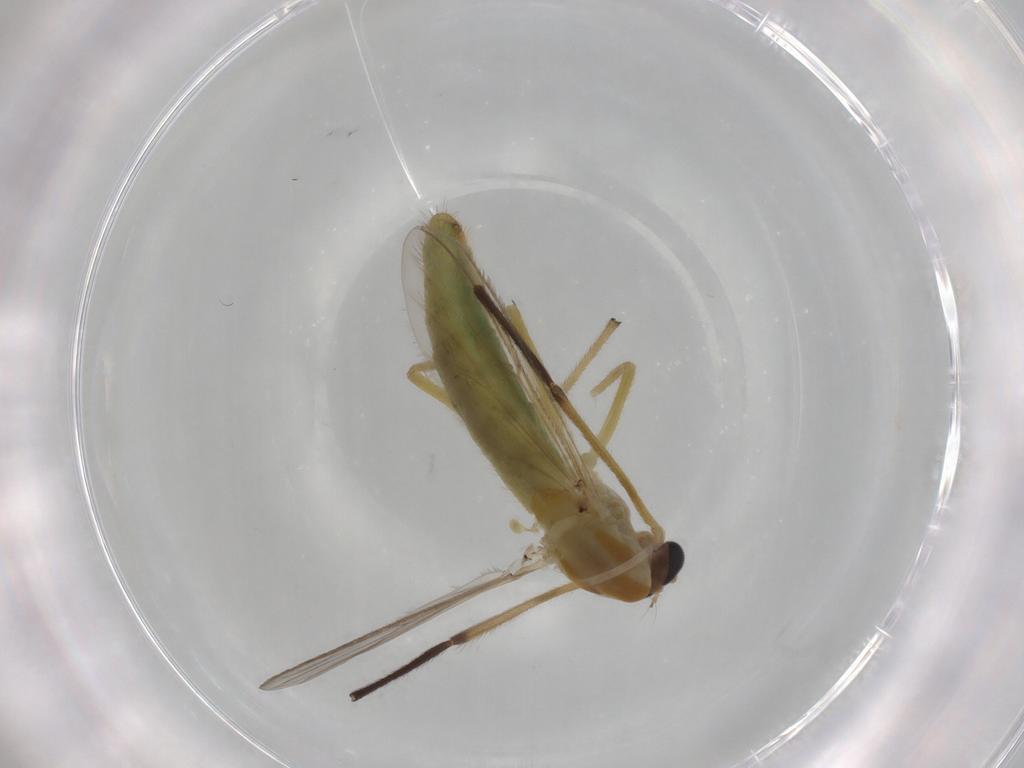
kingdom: Animalia
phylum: Arthropoda
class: Insecta
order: Diptera
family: Chironomidae
